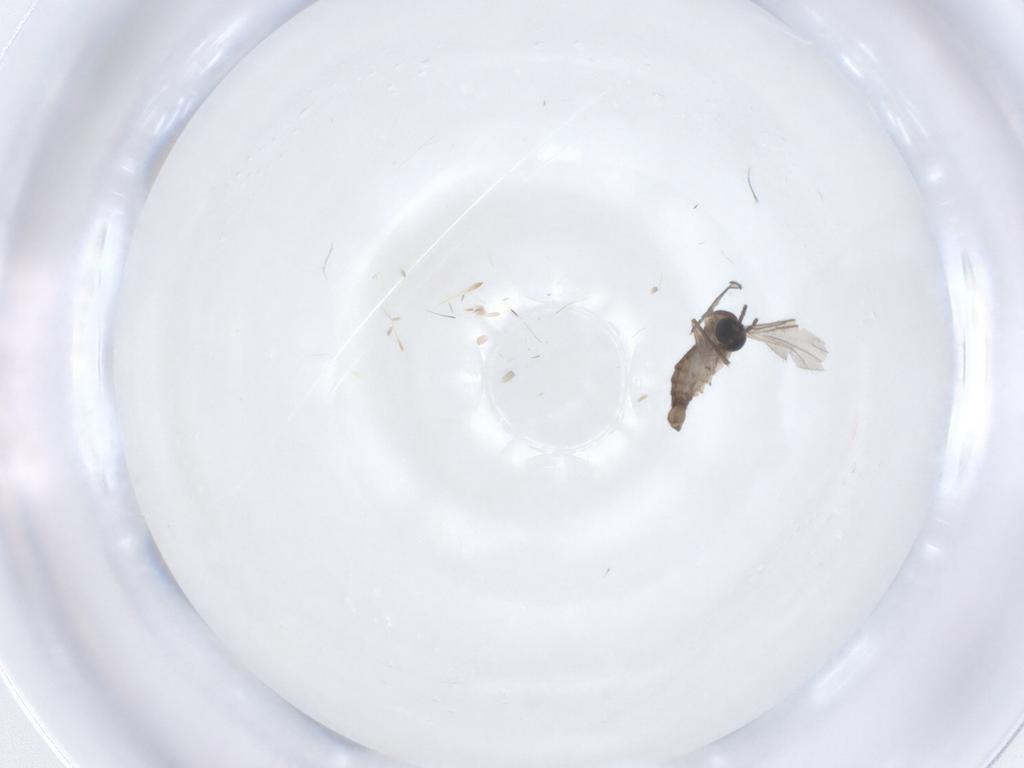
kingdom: Animalia
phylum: Arthropoda
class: Insecta
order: Diptera
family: Sciaridae
